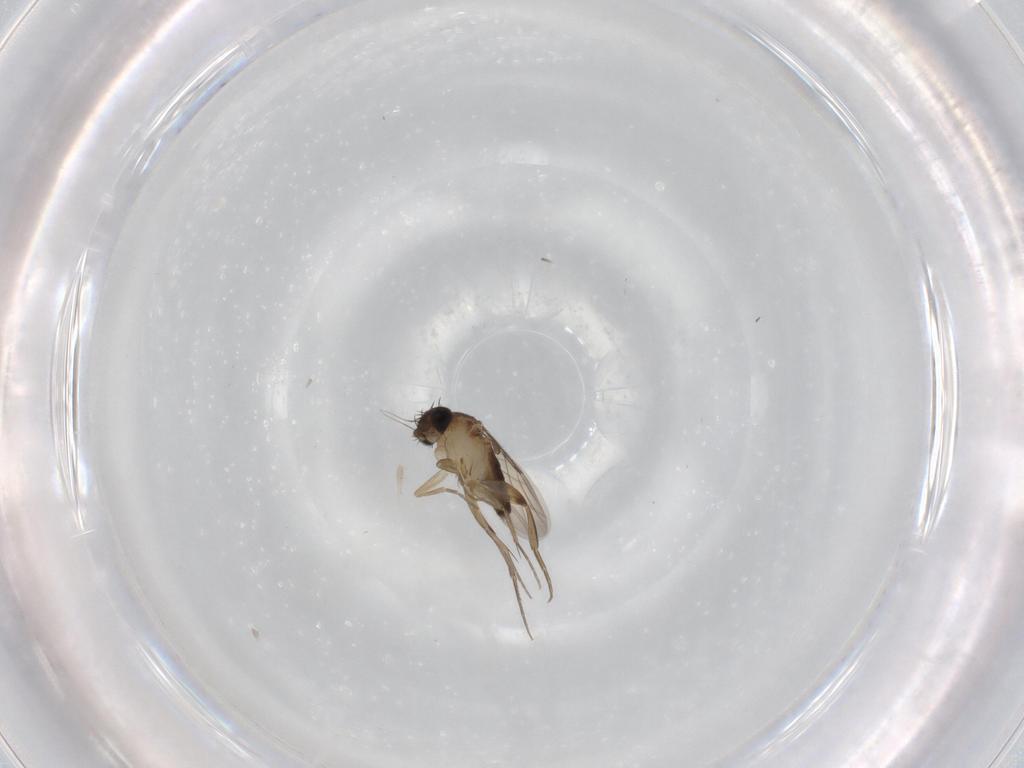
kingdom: Animalia
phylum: Arthropoda
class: Insecta
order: Diptera
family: Phoridae
